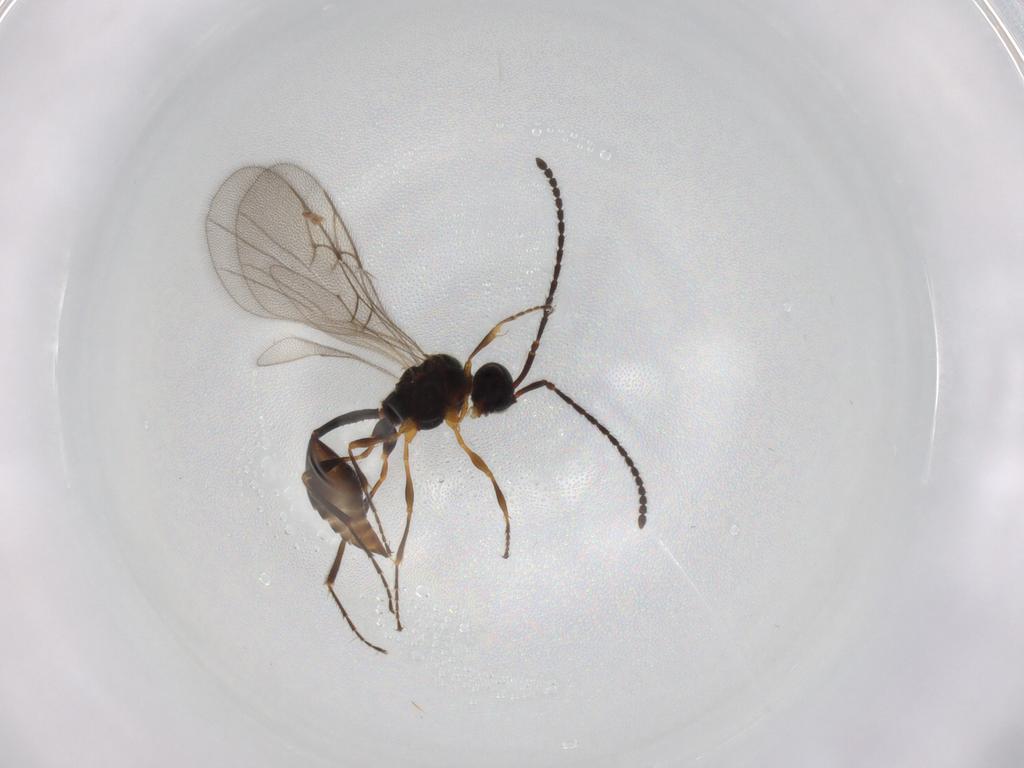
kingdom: Animalia
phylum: Arthropoda
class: Insecta
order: Hymenoptera
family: Diapriidae
